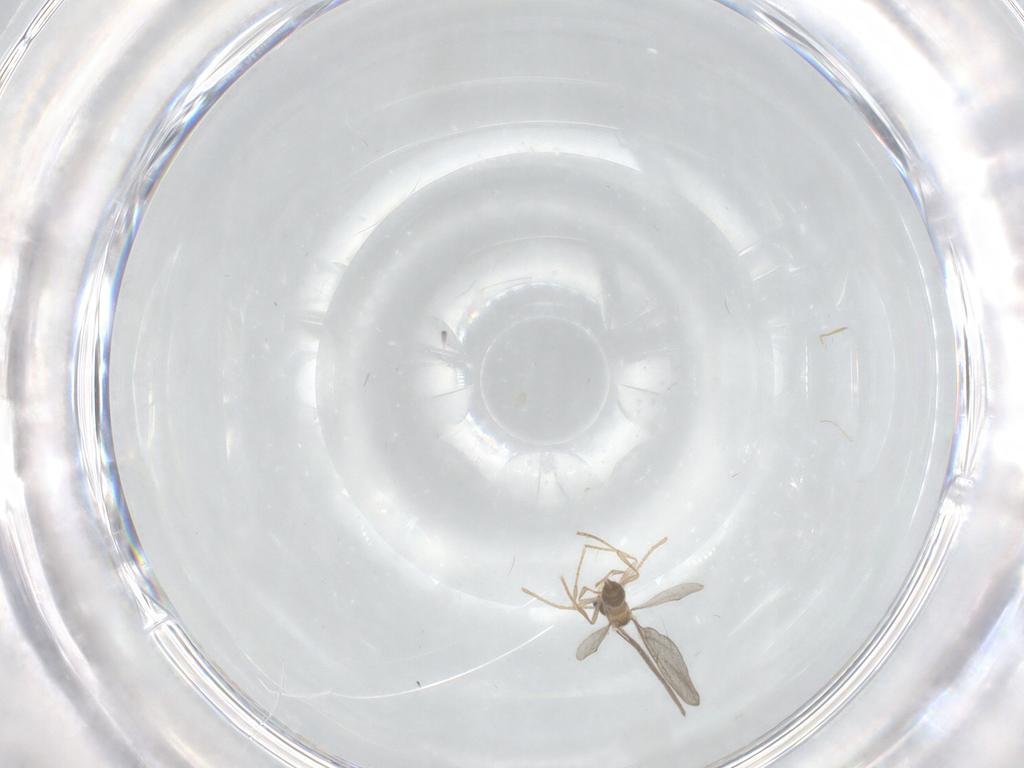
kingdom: Animalia
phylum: Arthropoda
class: Insecta
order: Hymenoptera
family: Formicidae
